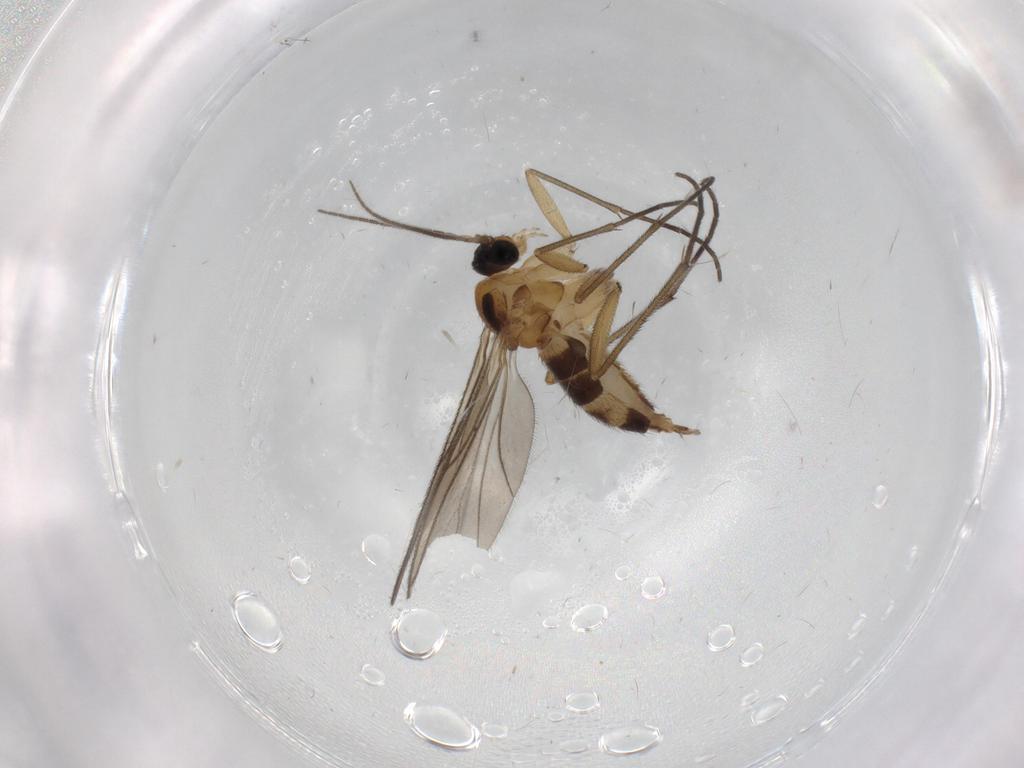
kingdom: Animalia
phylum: Arthropoda
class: Insecta
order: Diptera
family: Sciaridae
